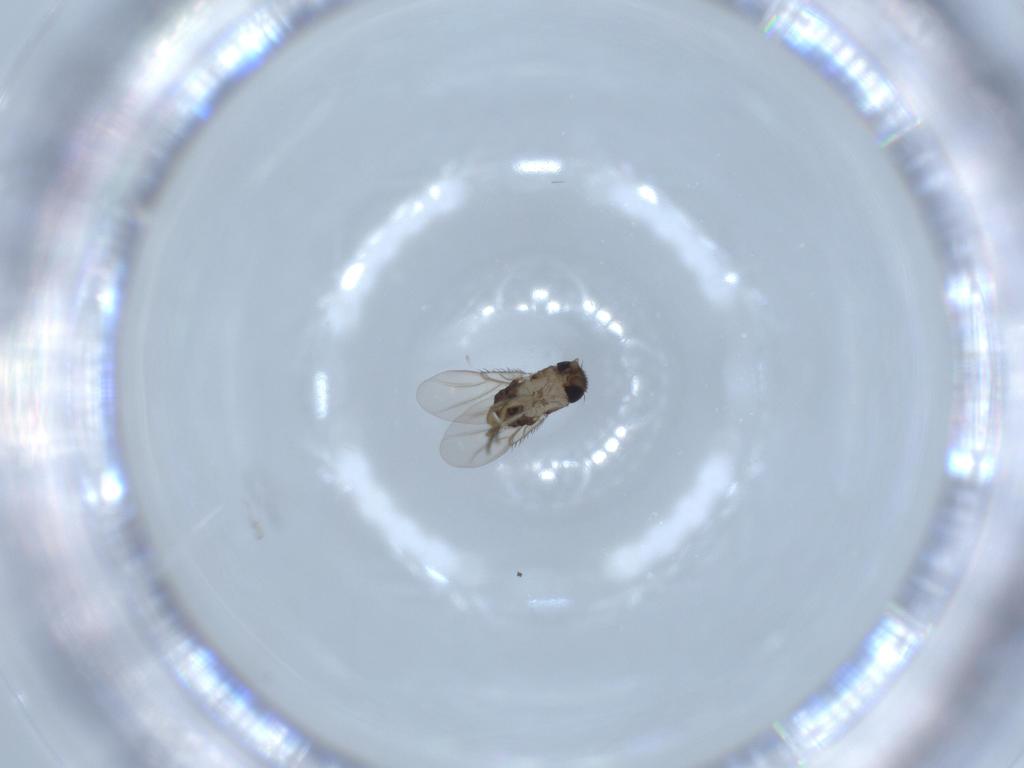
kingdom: Animalia
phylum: Arthropoda
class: Insecta
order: Diptera
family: Phoridae
